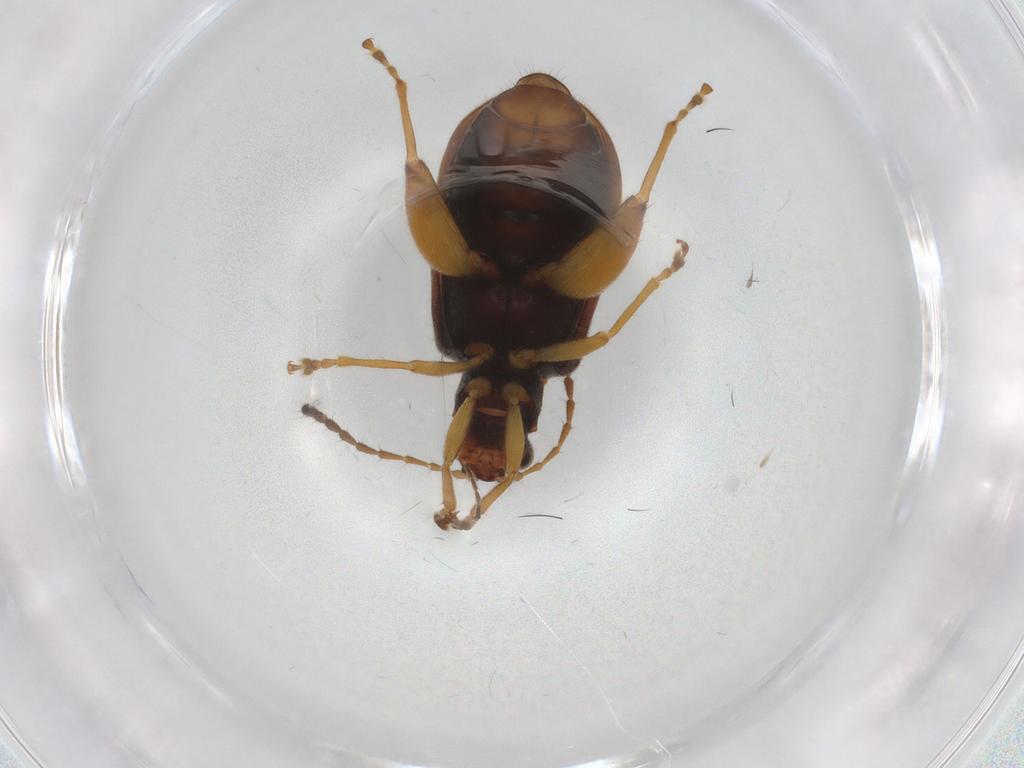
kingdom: Animalia
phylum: Arthropoda
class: Insecta
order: Coleoptera
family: Chrysomelidae
